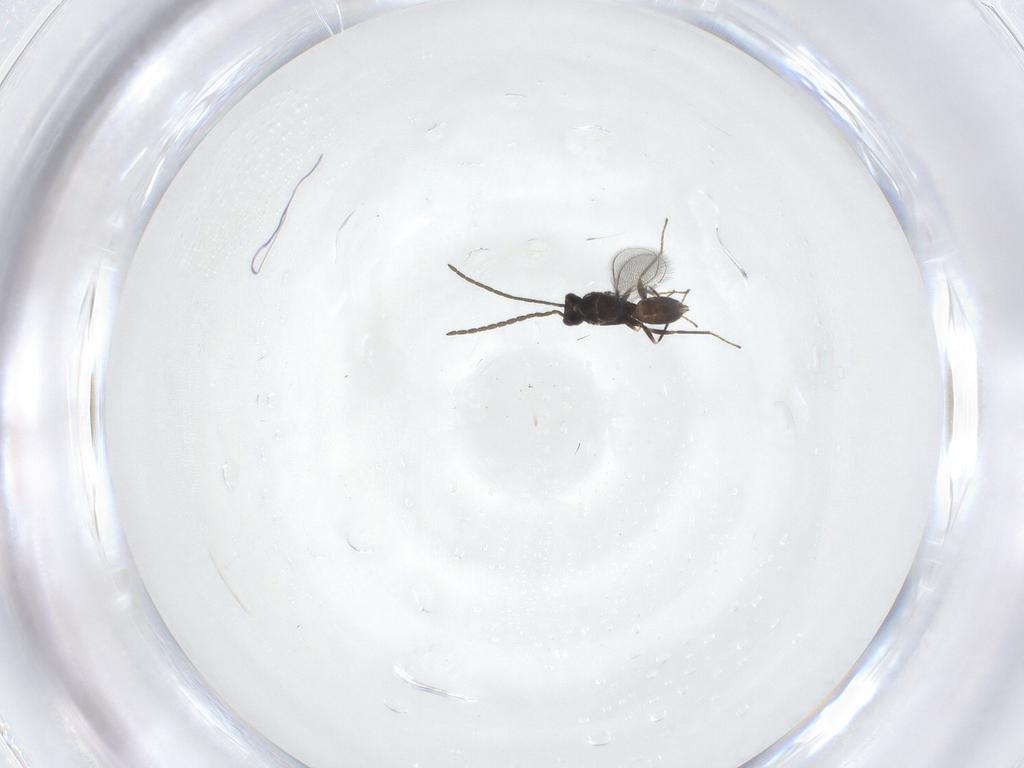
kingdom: Animalia
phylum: Arthropoda
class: Insecta
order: Hymenoptera
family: Mymaridae
